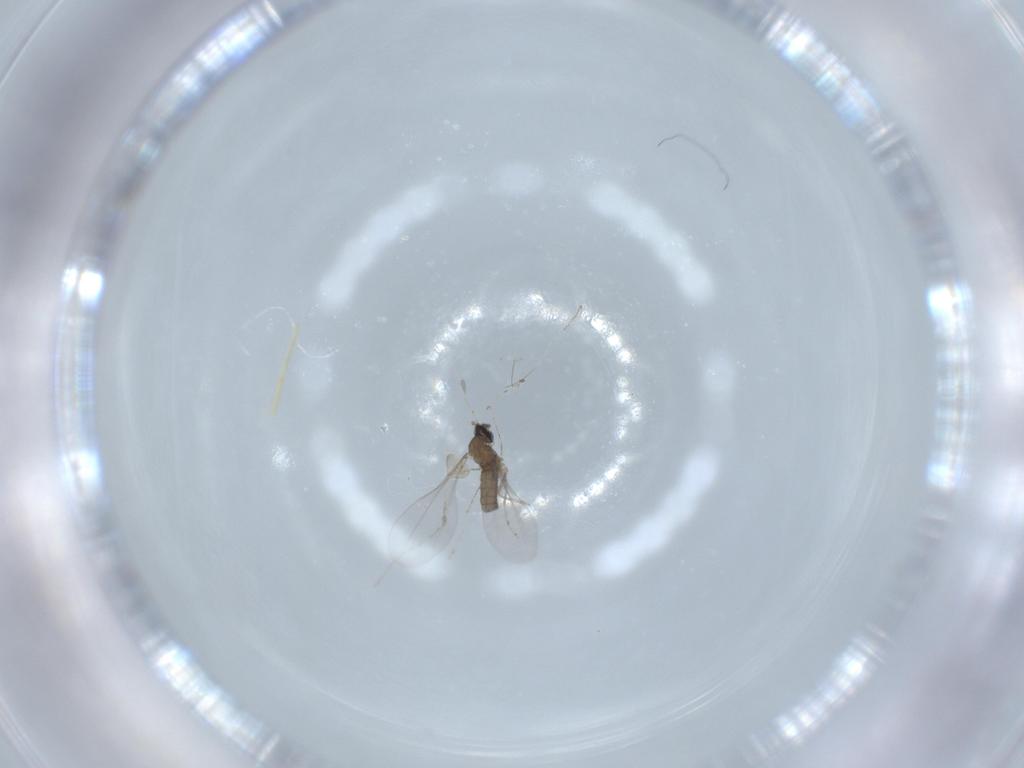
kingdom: Animalia
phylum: Arthropoda
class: Insecta
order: Diptera
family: Cecidomyiidae
